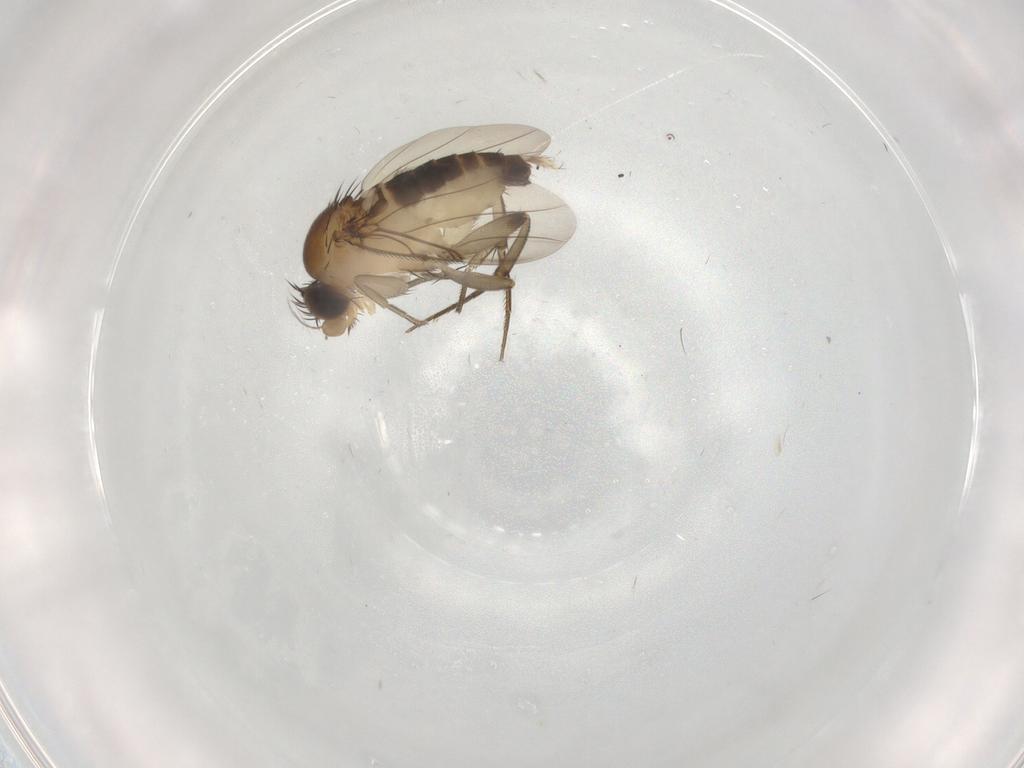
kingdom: Animalia
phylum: Arthropoda
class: Insecta
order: Diptera
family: Phoridae
